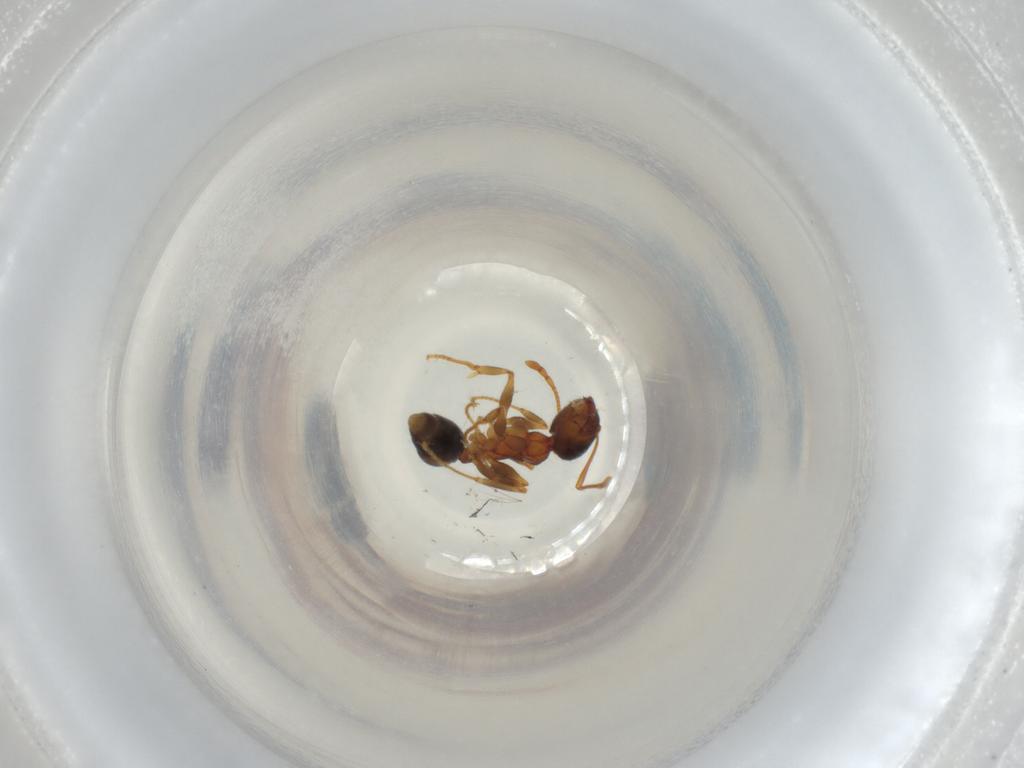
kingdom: Animalia
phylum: Arthropoda
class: Insecta
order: Hymenoptera
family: Formicidae
